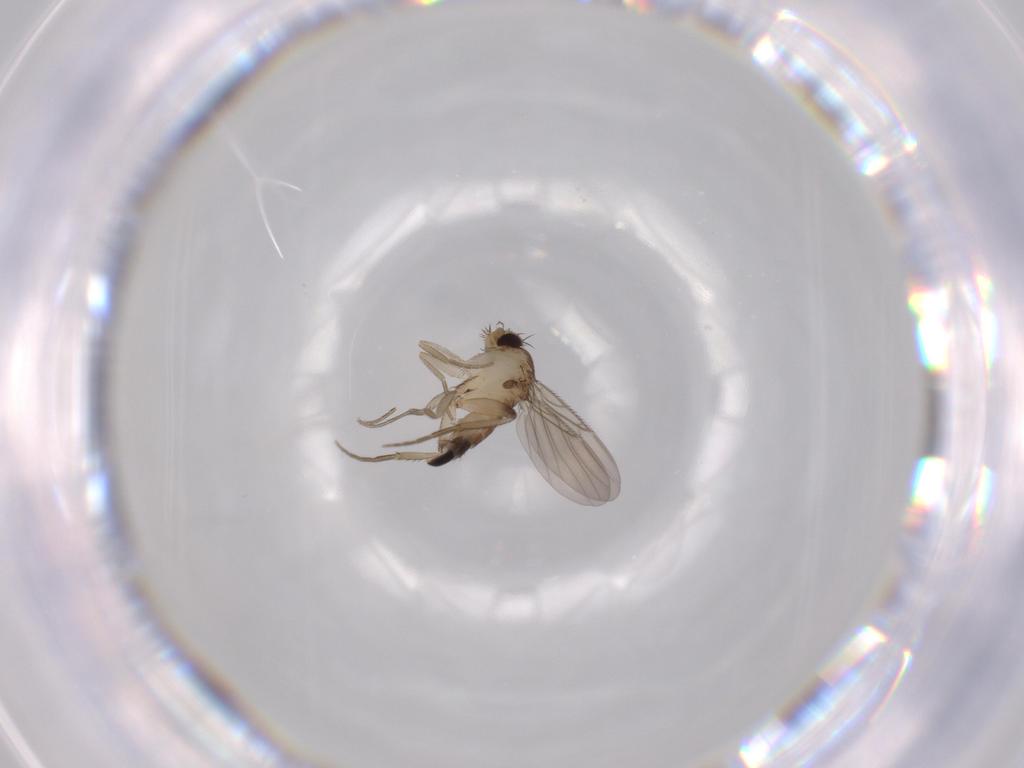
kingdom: Animalia
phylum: Arthropoda
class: Insecta
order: Diptera
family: Phoridae
